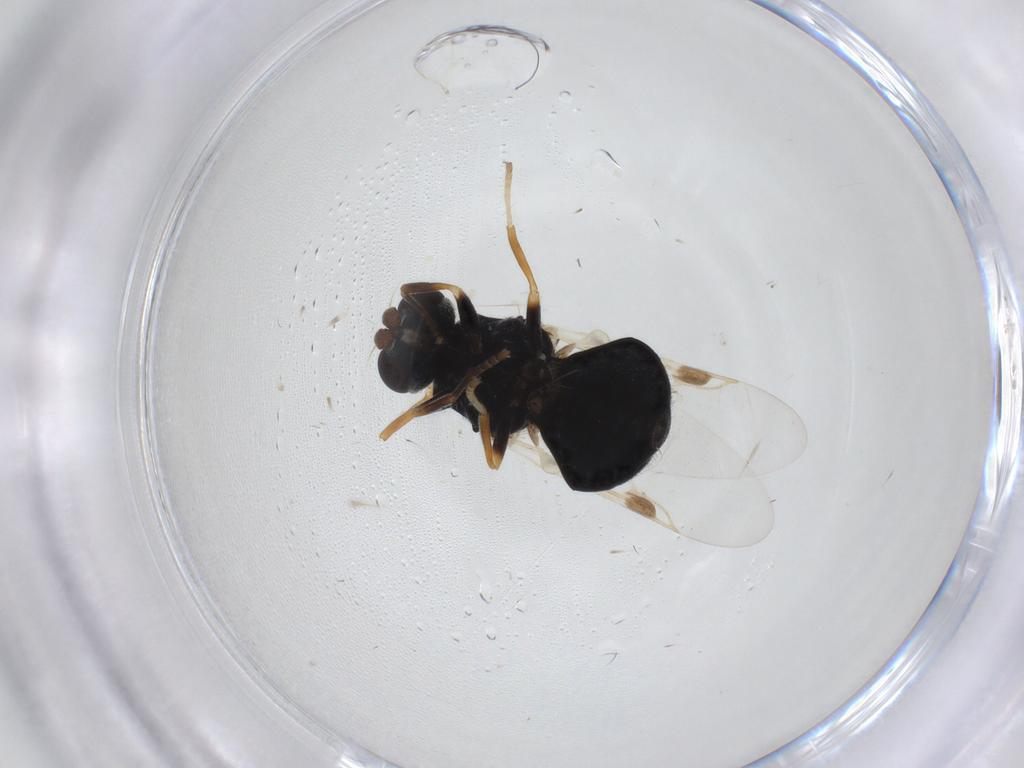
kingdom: Animalia
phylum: Arthropoda
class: Insecta
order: Diptera
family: Stratiomyidae
